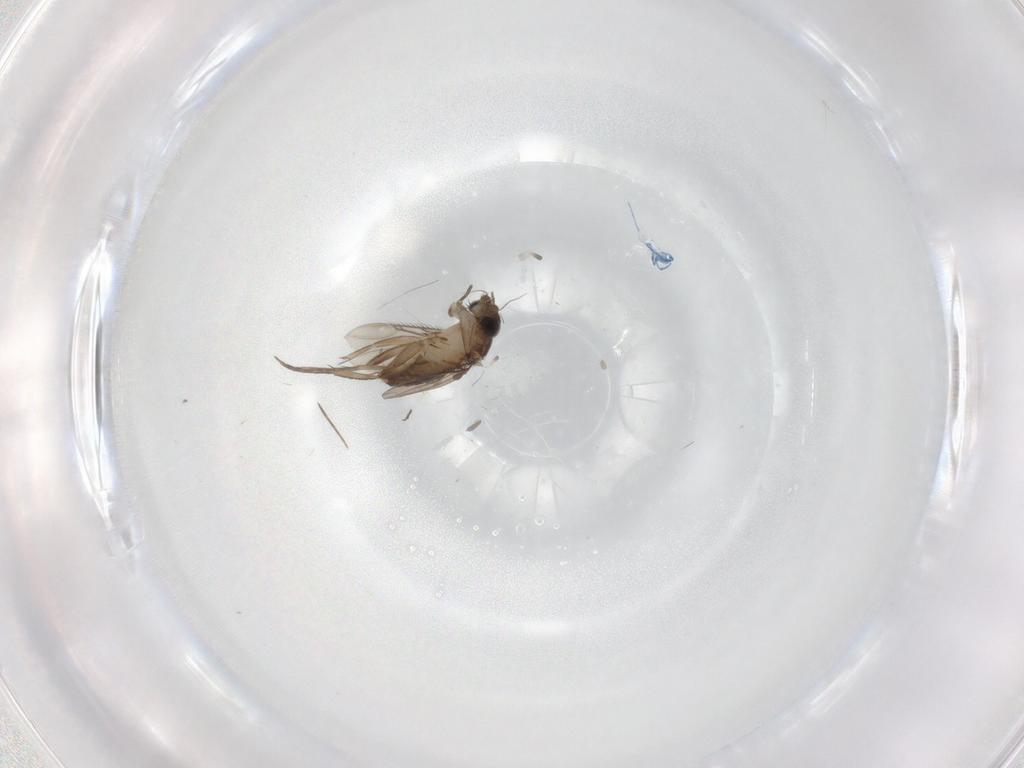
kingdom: Animalia
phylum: Arthropoda
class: Insecta
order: Diptera
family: Phoridae
